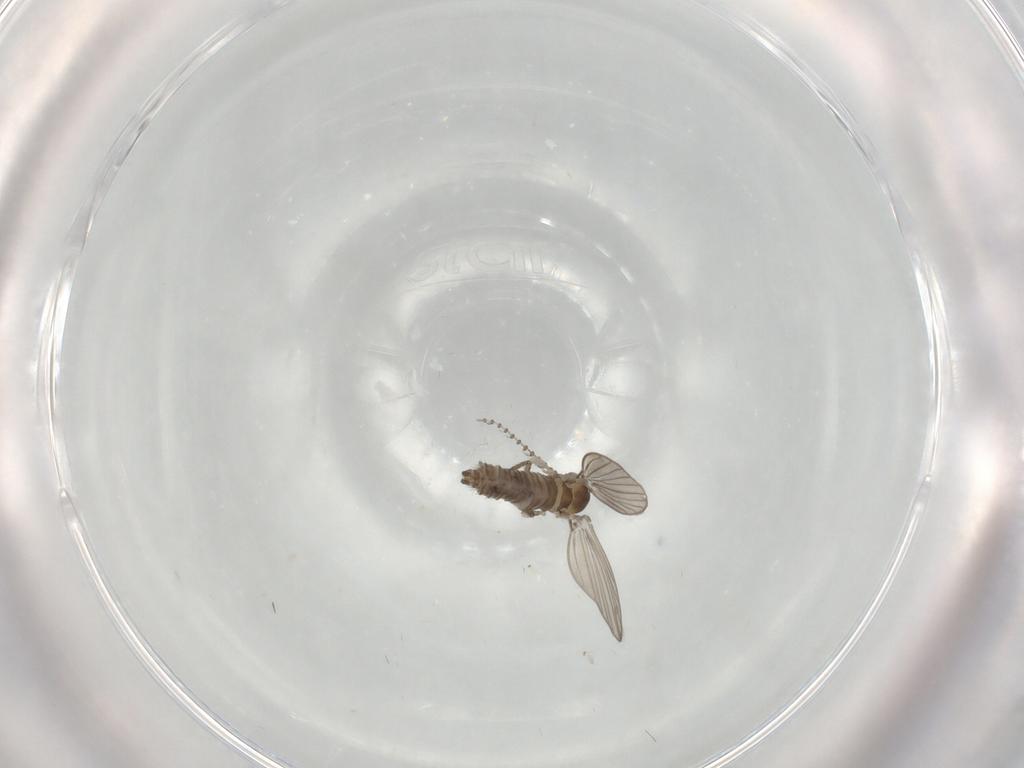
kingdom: Animalia
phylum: Arthropoda
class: Insecta
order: Diptera
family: Psychodidae
